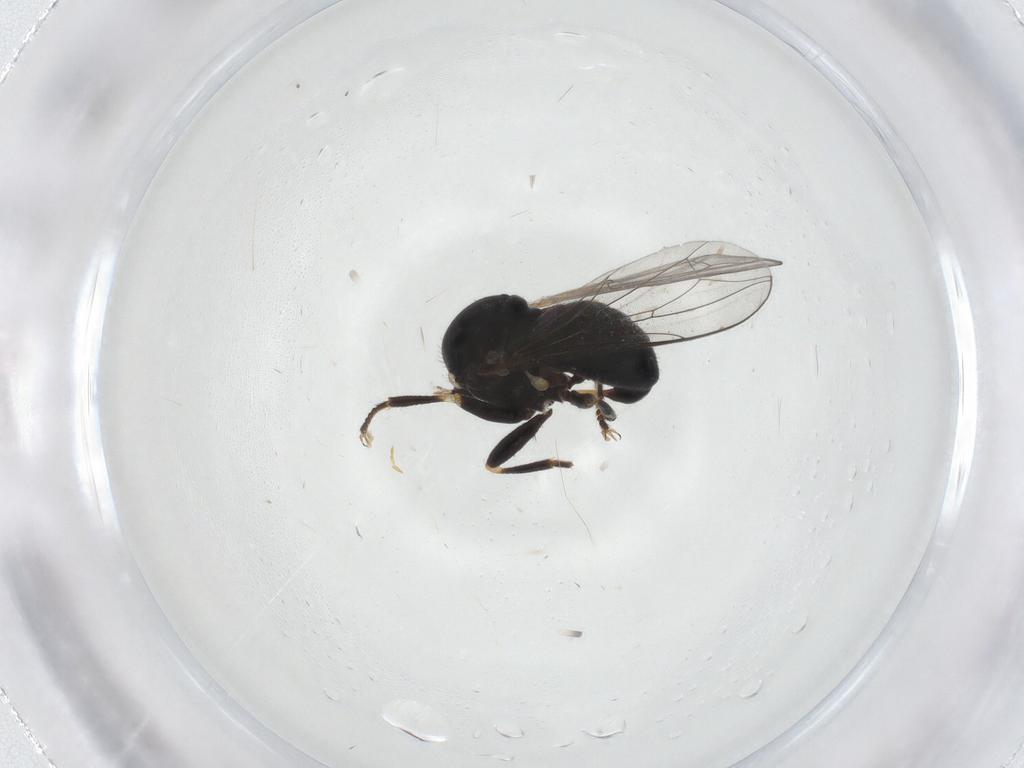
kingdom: Animalia
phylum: Arthropoda
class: Insecta
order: Diptera
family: Pipunculidae
